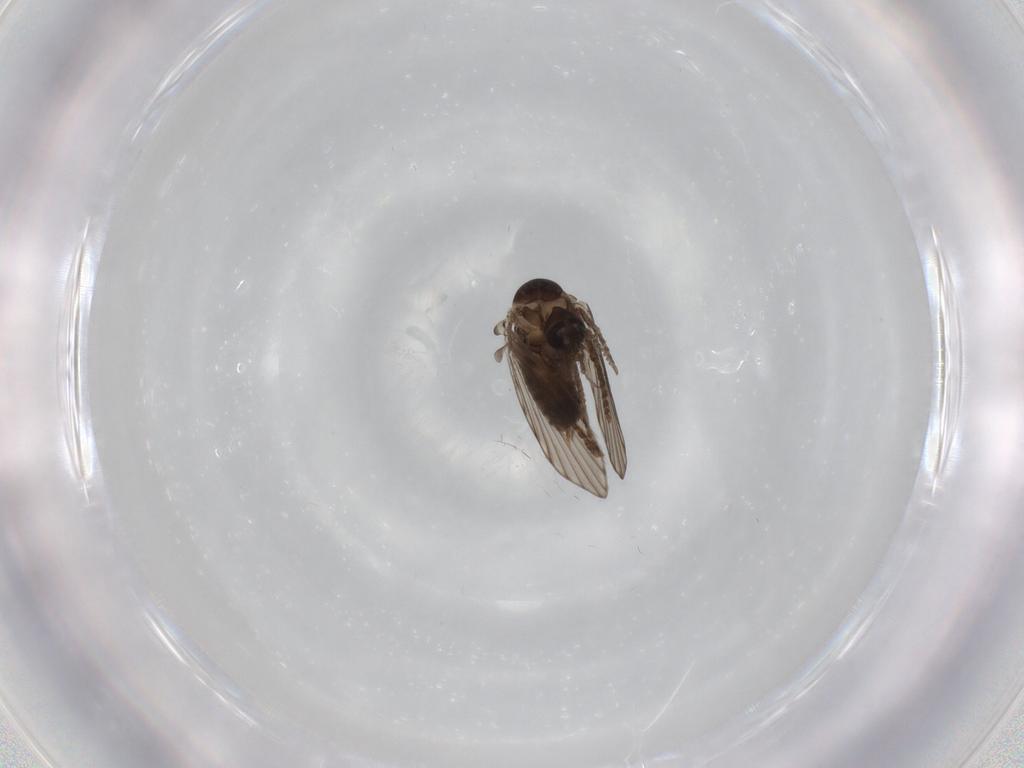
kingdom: Animalia
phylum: Arthropoda
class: Insecta
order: Diptera
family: Psychodidae
